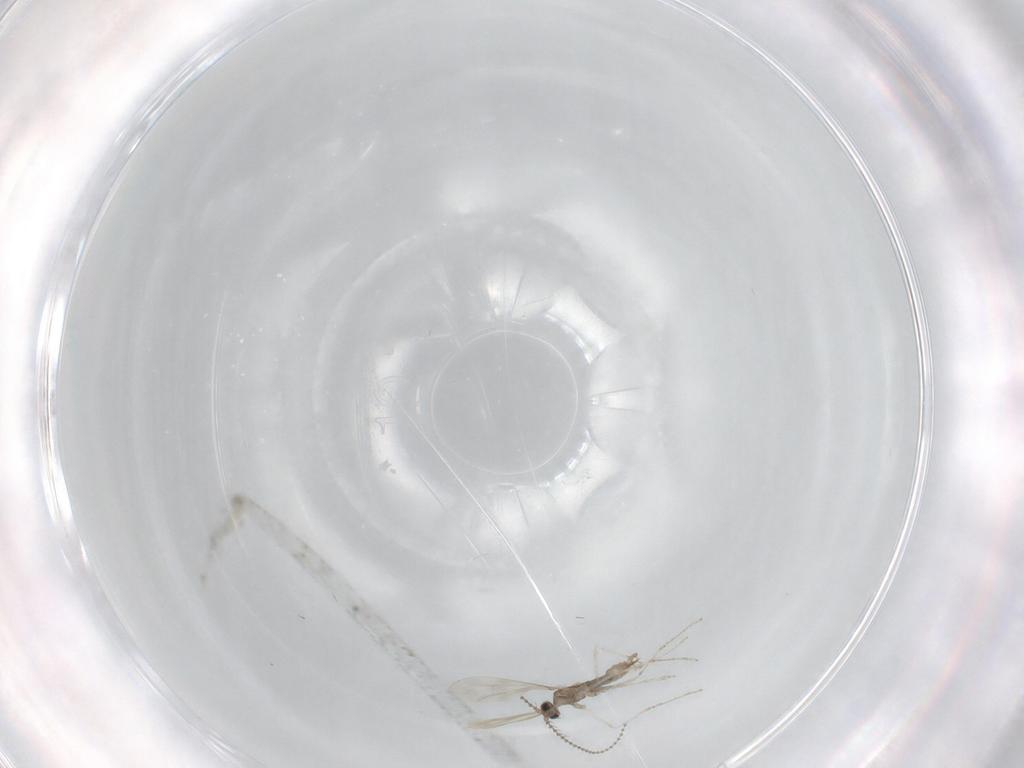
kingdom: Animalia
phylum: Arthropoda
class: Insecta
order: Diptera
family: Cecidomyiidae
